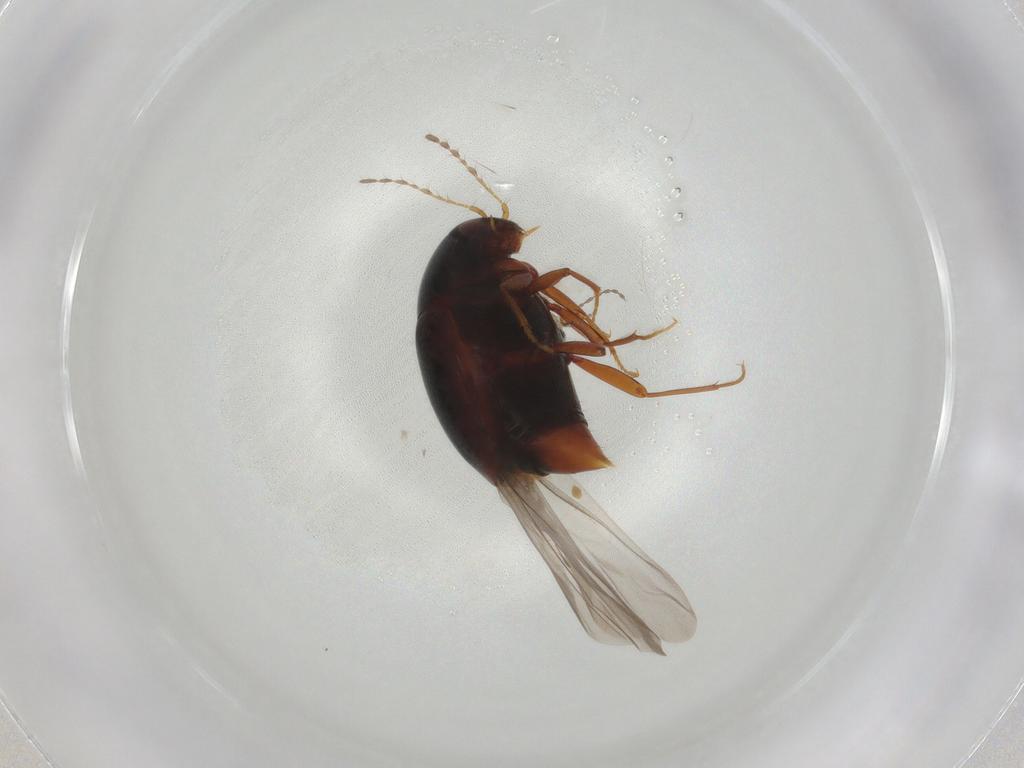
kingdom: Animalia
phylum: Arthropoda
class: Insecta
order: Coleoptera
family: Staphylinidae
